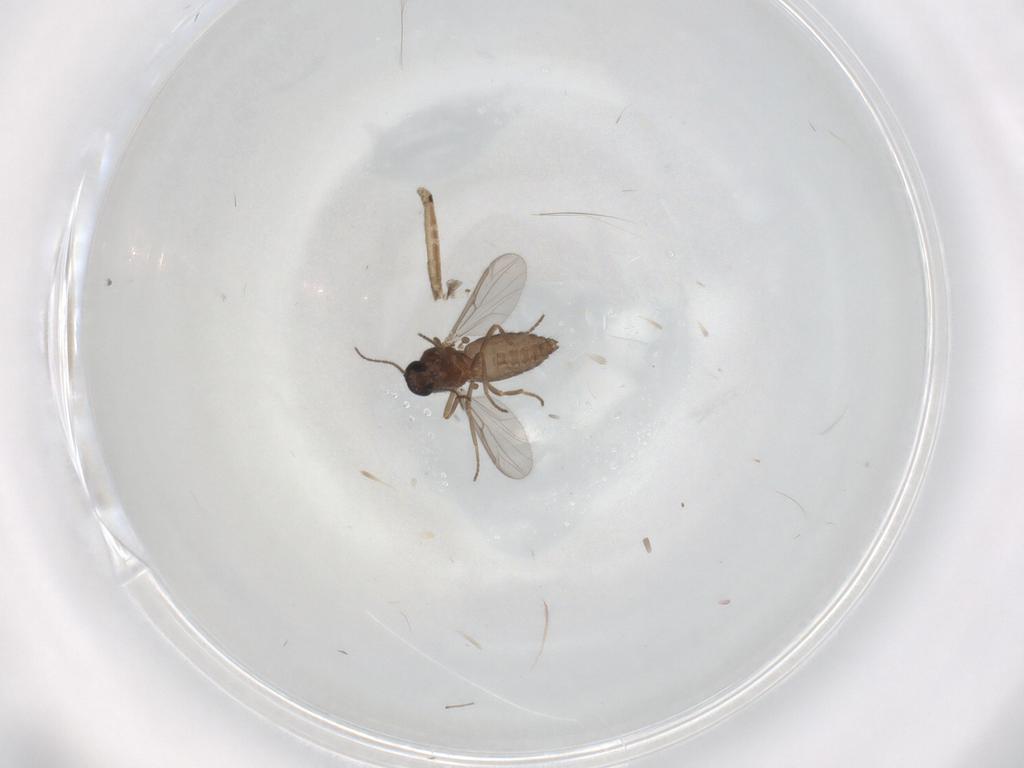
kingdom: Animalia
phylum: Arthropoda
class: Insecta
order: Diptera
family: Ceratopogonidae
